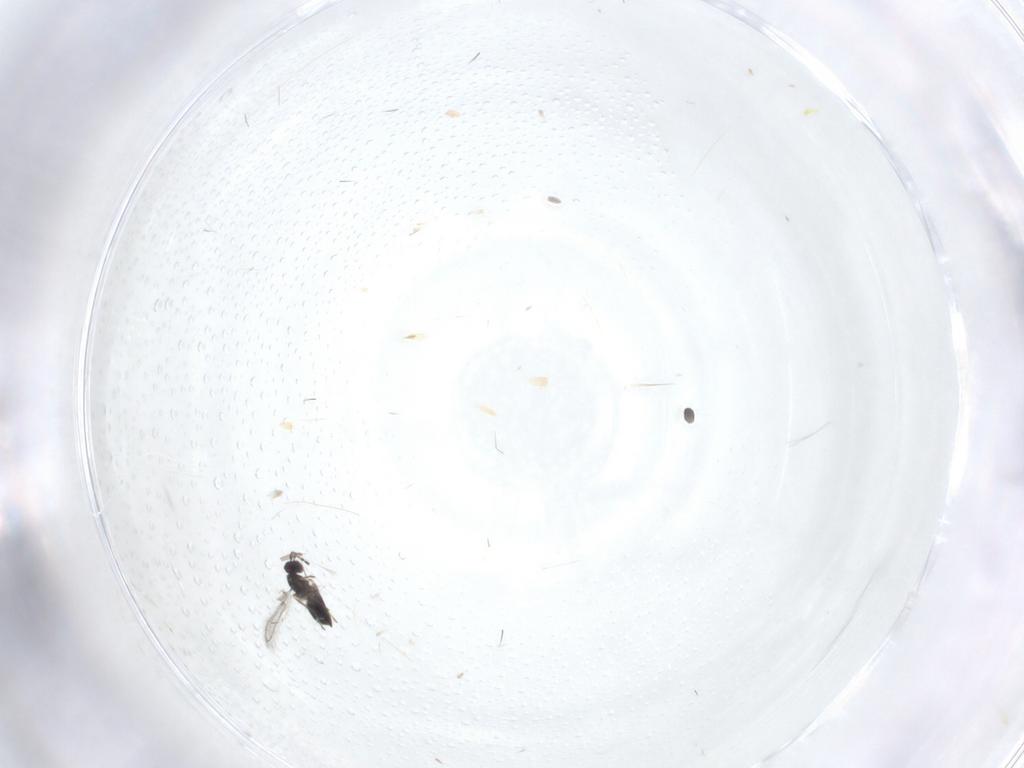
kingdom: Animalia
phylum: Arthropoda
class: Insecta
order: Hymenoptera
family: Mymaridae
